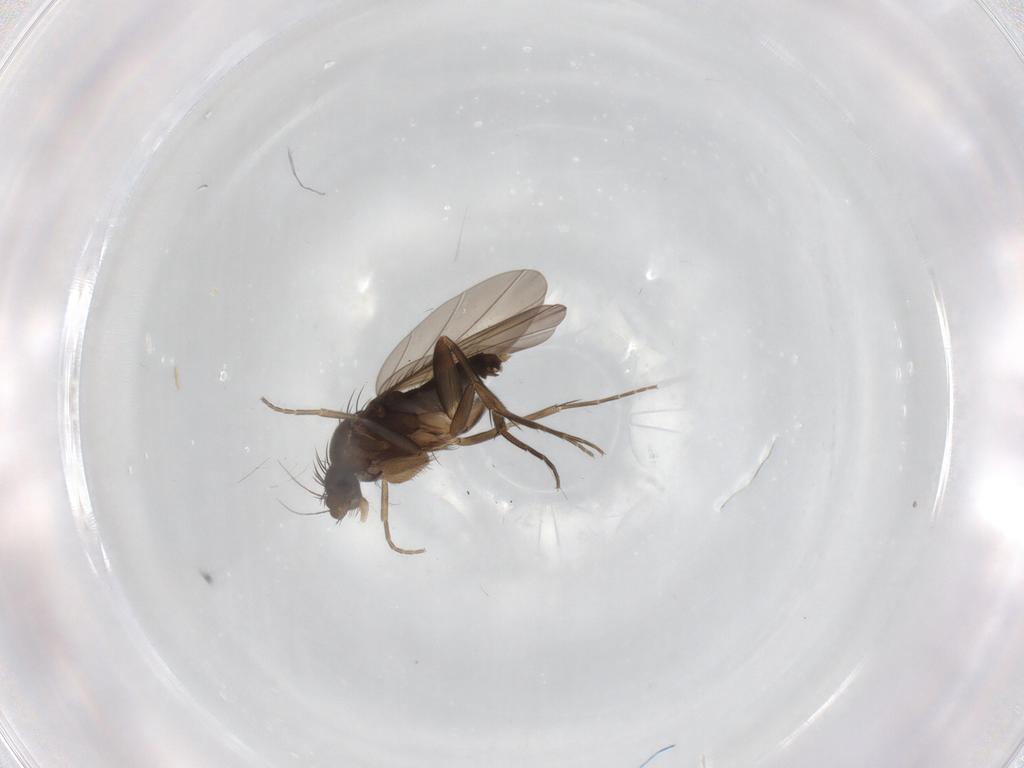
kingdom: Animalia
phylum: Arthropoda
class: Insecta
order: Diptera
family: Phoridae
